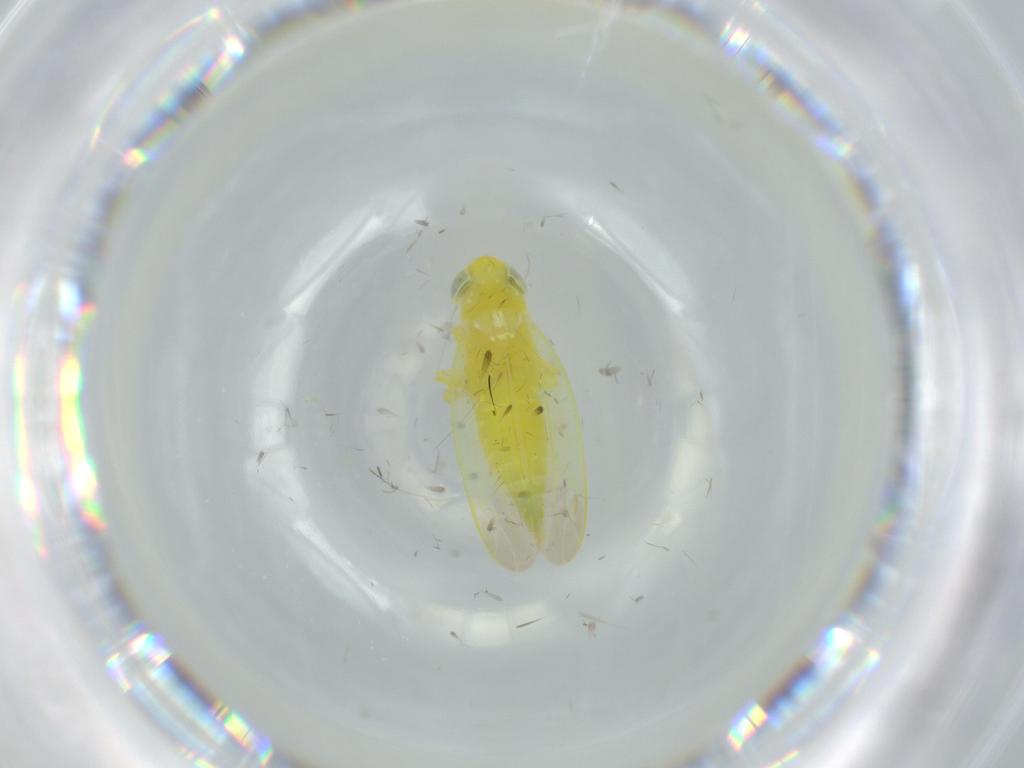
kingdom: Animalia
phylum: Arthropoda
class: Insecta
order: Hemiptera
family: Cicadellidae
